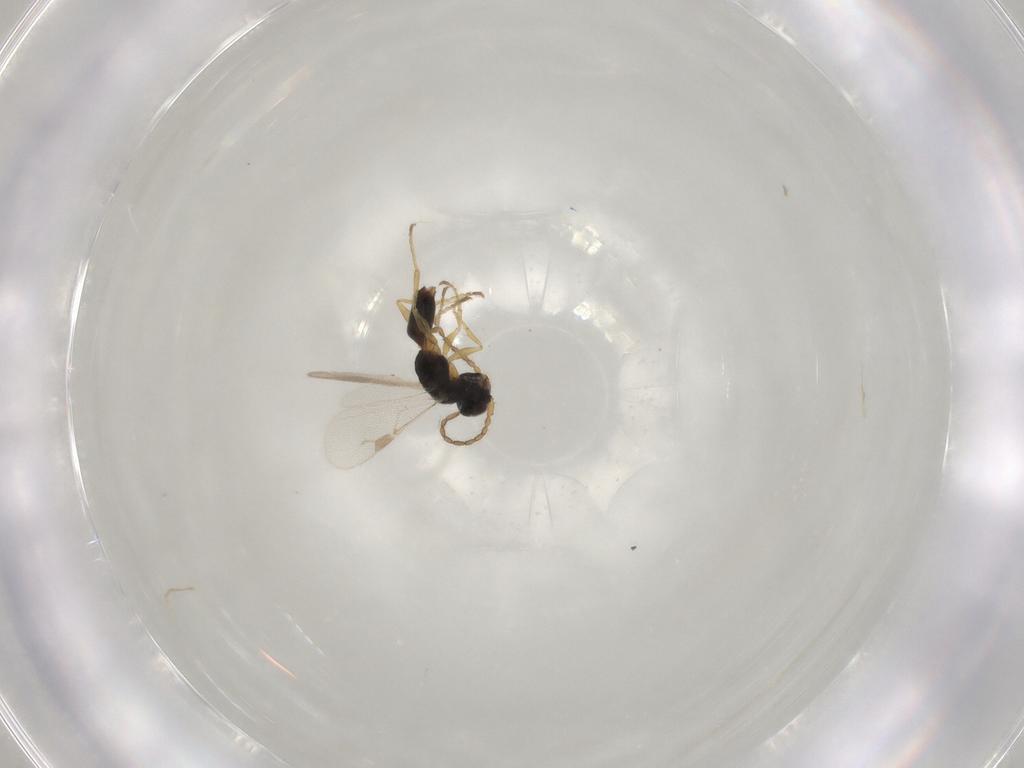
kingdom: Animalia
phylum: Arthropoda
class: Insecta
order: Hymenoptera
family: Dryinidae
